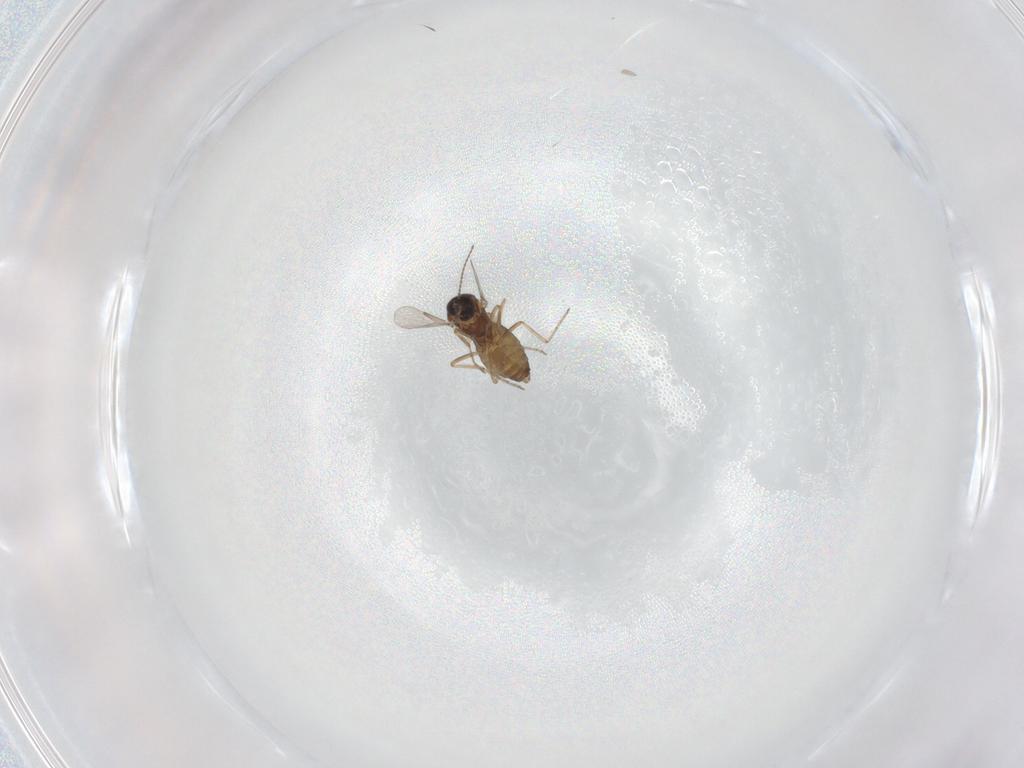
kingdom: Animalia
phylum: Arthropoda
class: Insecta
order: Diptera
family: Ceratopogonidae
